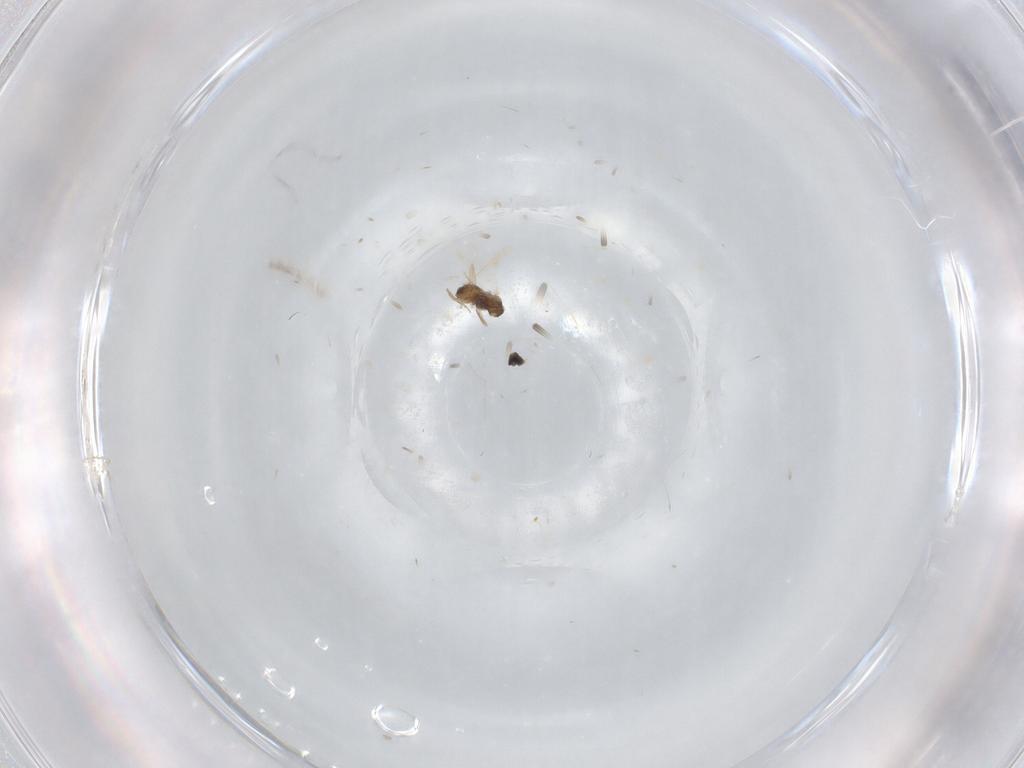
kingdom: Animalia
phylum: Arthropoda
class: Insecta
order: Diptera
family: Cecidomyiidae
